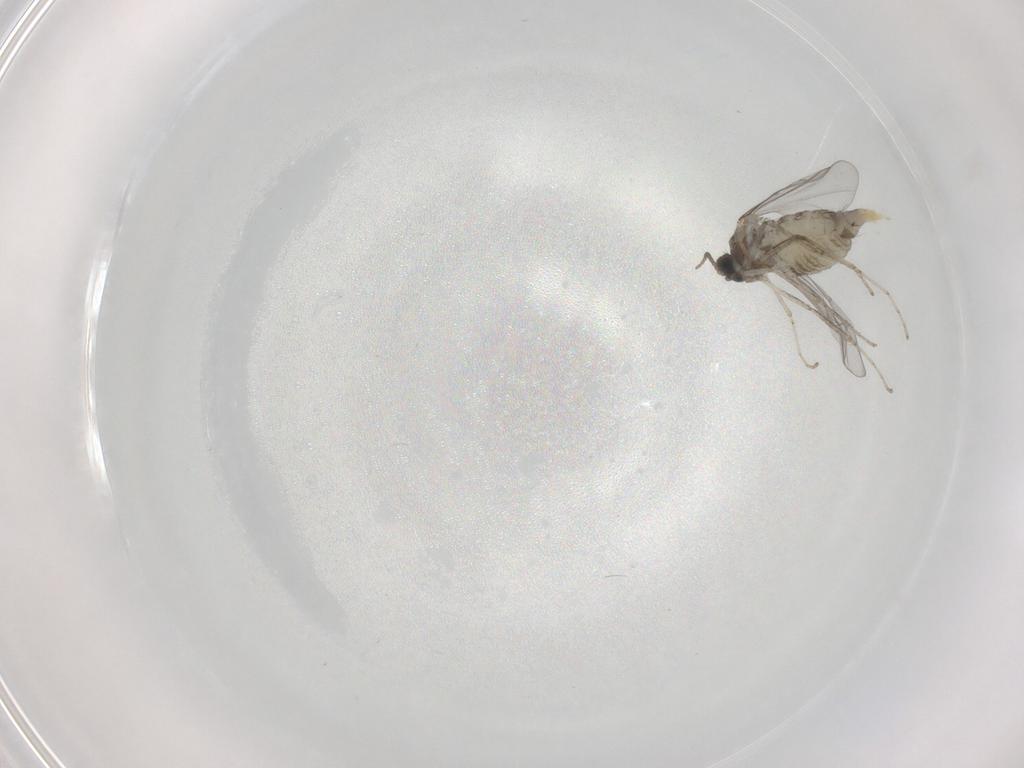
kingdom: Animalia
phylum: Arthropoda
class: Insecta
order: Diptera
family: Cecidomyiidae
